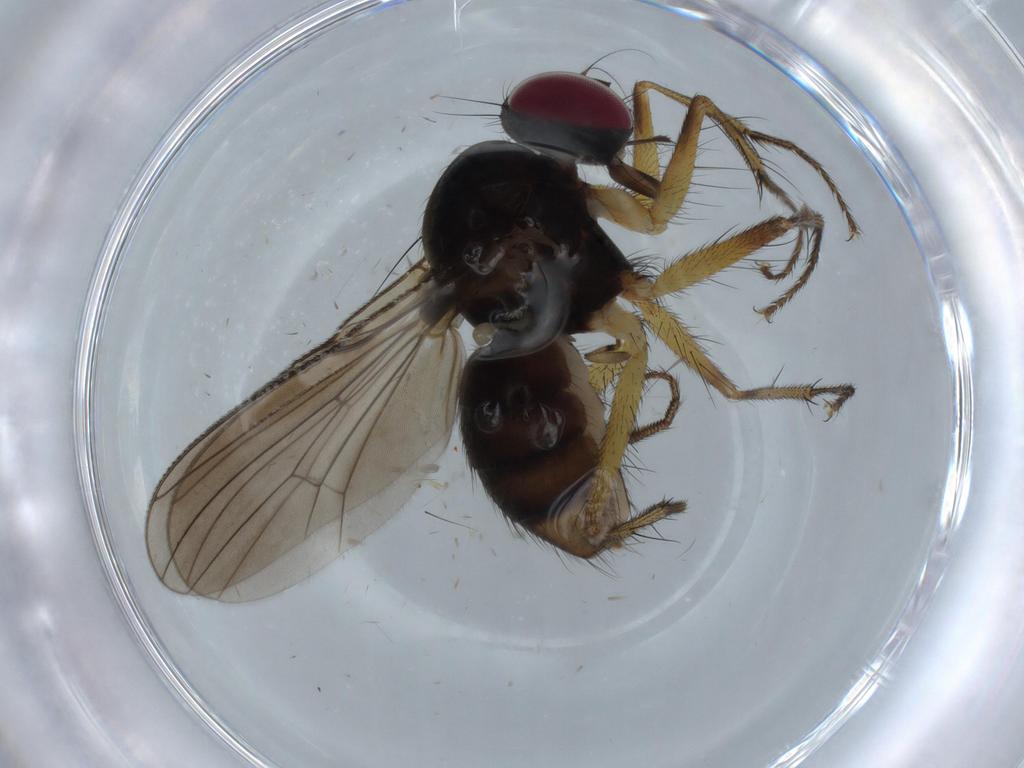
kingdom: Animalia
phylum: Arthropoda
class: Insecta
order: Diptera
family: Anthomyiidae
